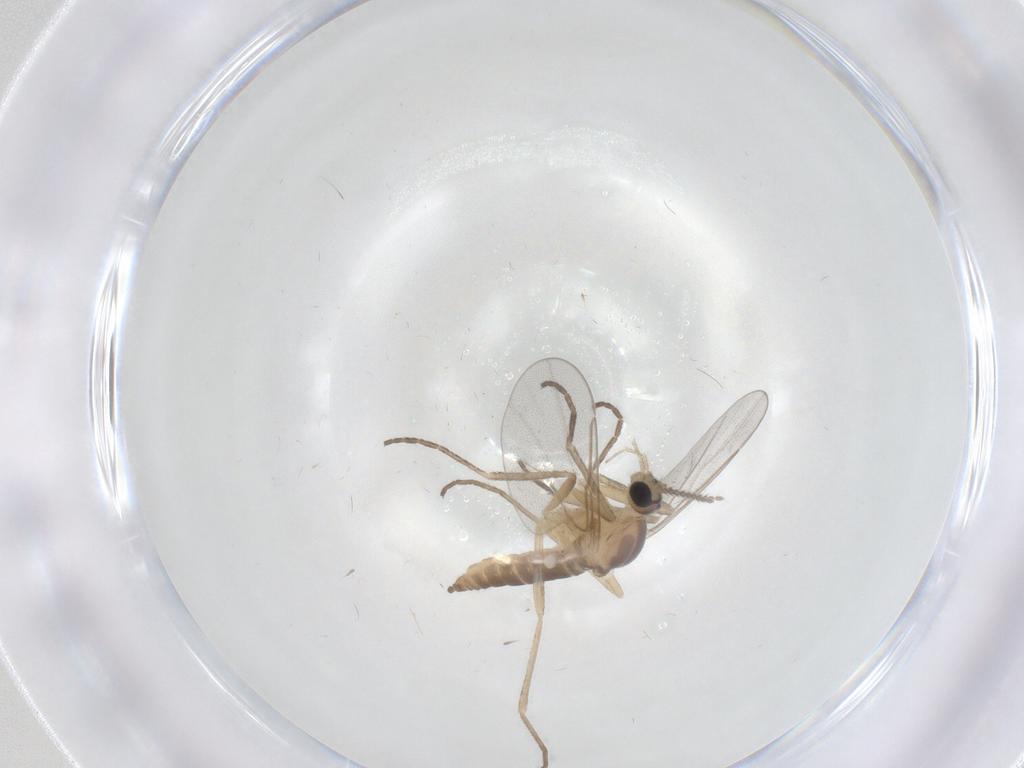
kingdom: Animalia
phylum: Arthropoda
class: Insecta
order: Diptera
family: Cecidomyiidae
